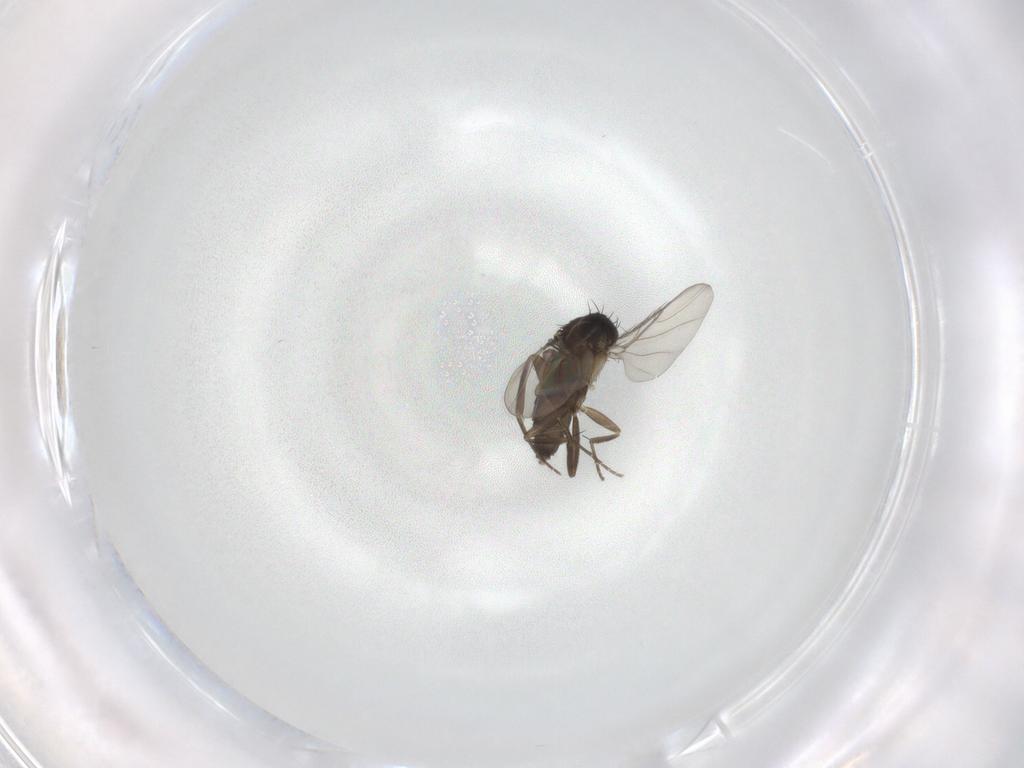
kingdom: Animalia
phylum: Arthropoda
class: Insecta
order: Diptera
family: Phoridae
